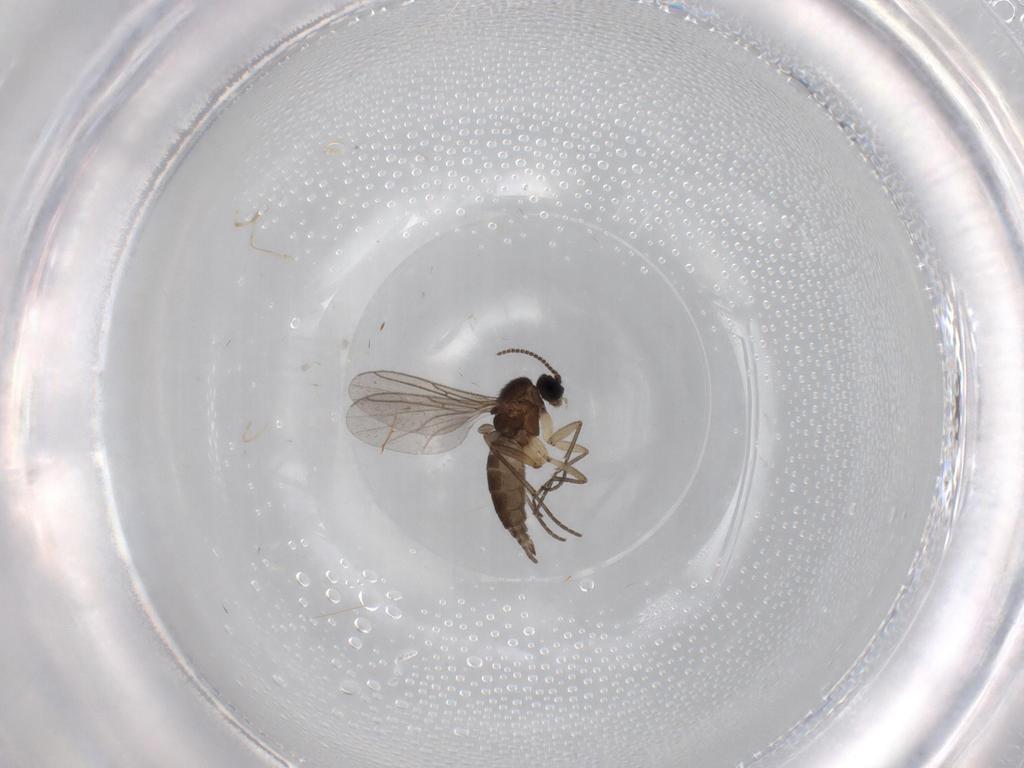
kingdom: Animalia
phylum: Arthropoda
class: Insecta
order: Diptera
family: Sciaridae
